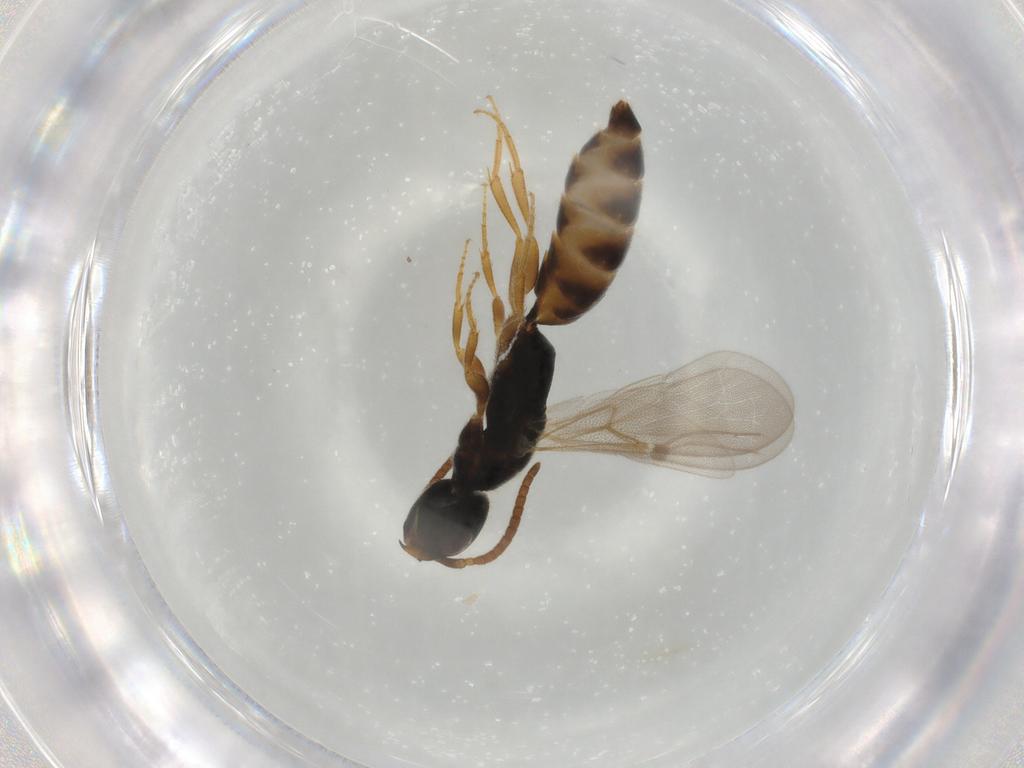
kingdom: Animalia
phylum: Arthropoda
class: Insecta
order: Hymenoptera
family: Bethylidae
